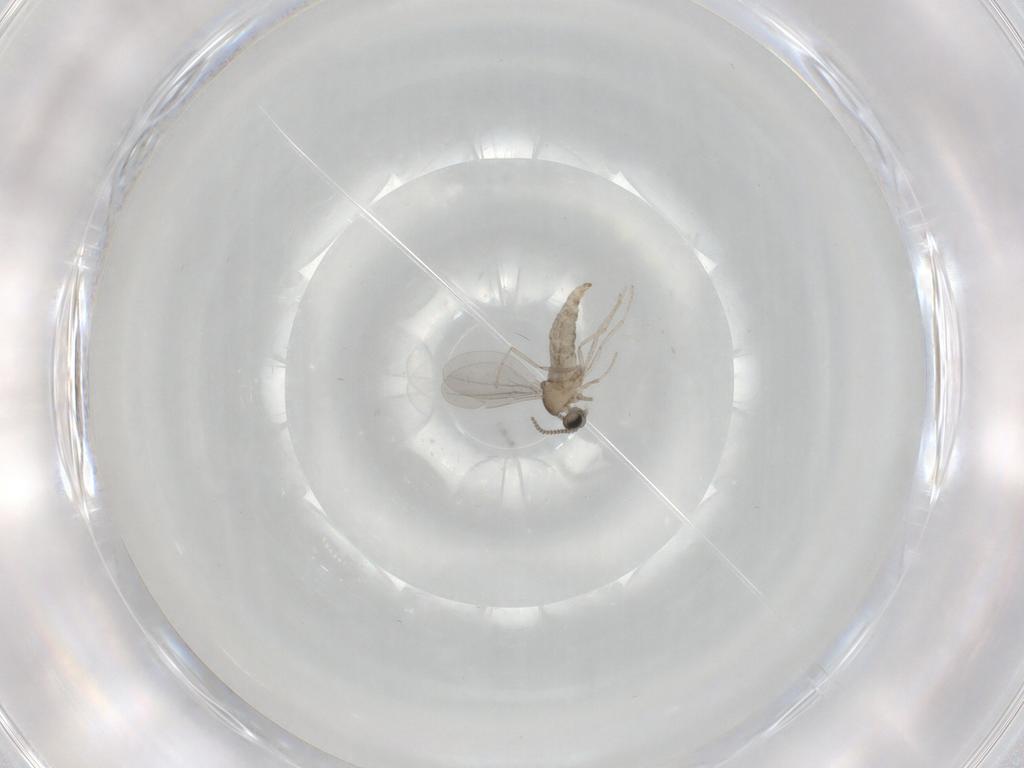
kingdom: Animalia
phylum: Arthropoda
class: Insecta
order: Diptera
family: Cecidomyiidae
